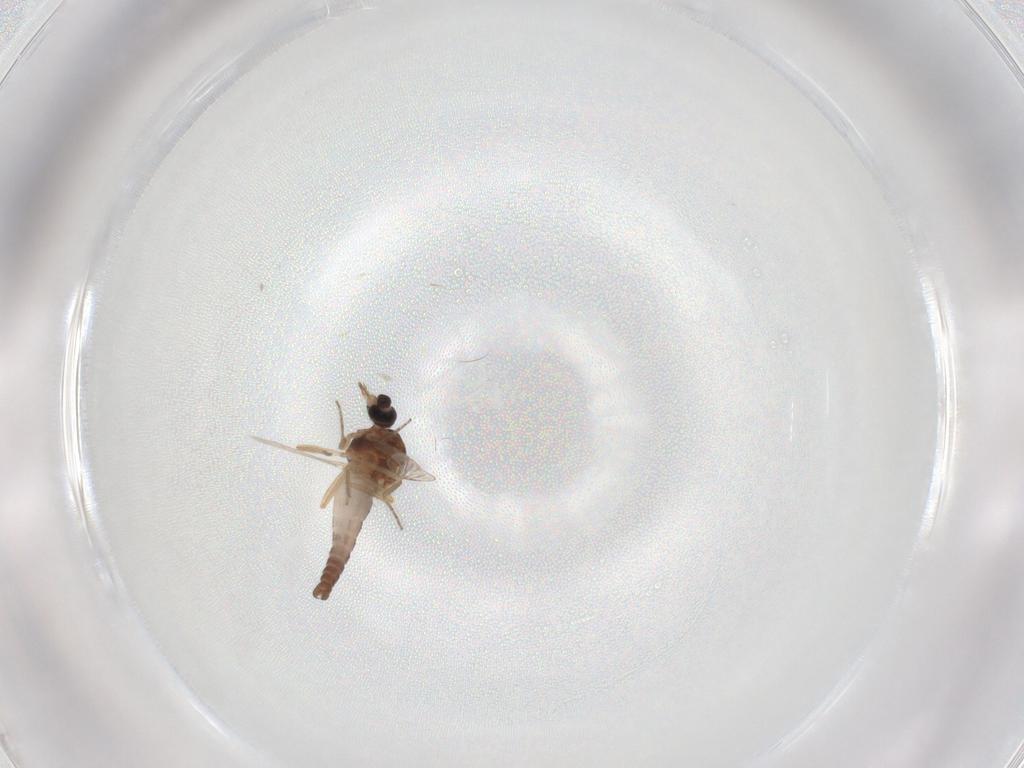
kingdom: Animalia
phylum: Arthropoda
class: Insecta
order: Diptera
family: Ceratopogonidae
